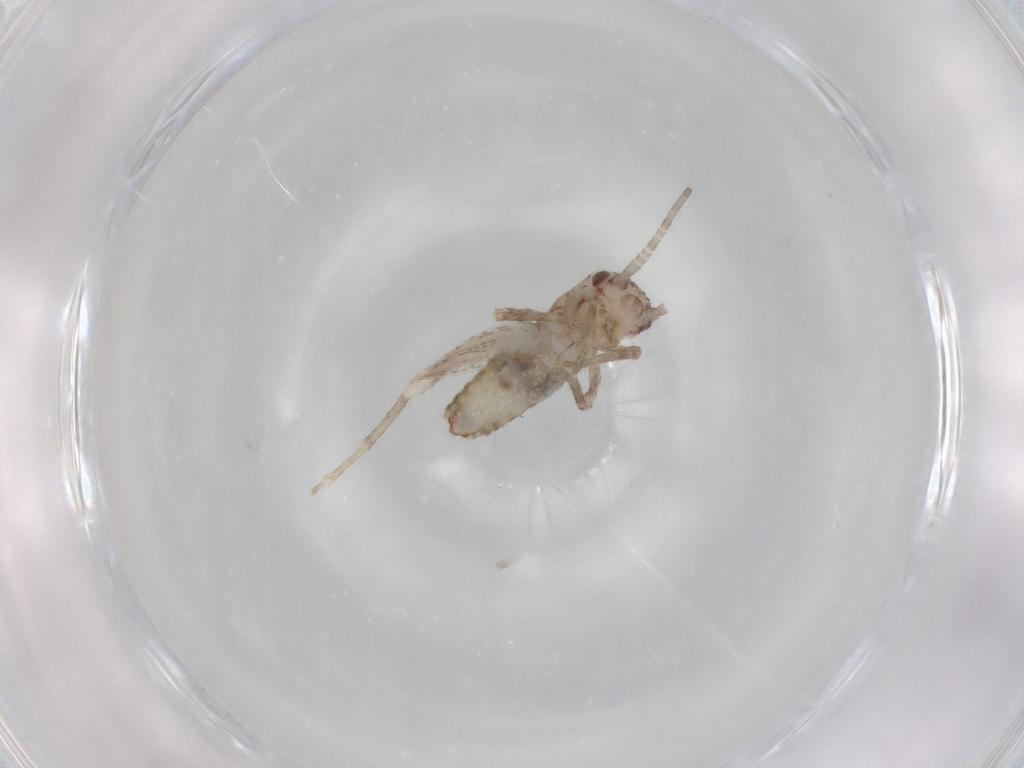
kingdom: Animalia
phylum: Arthropoda
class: Insecta
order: Orthoptera
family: Mogoplistidae
